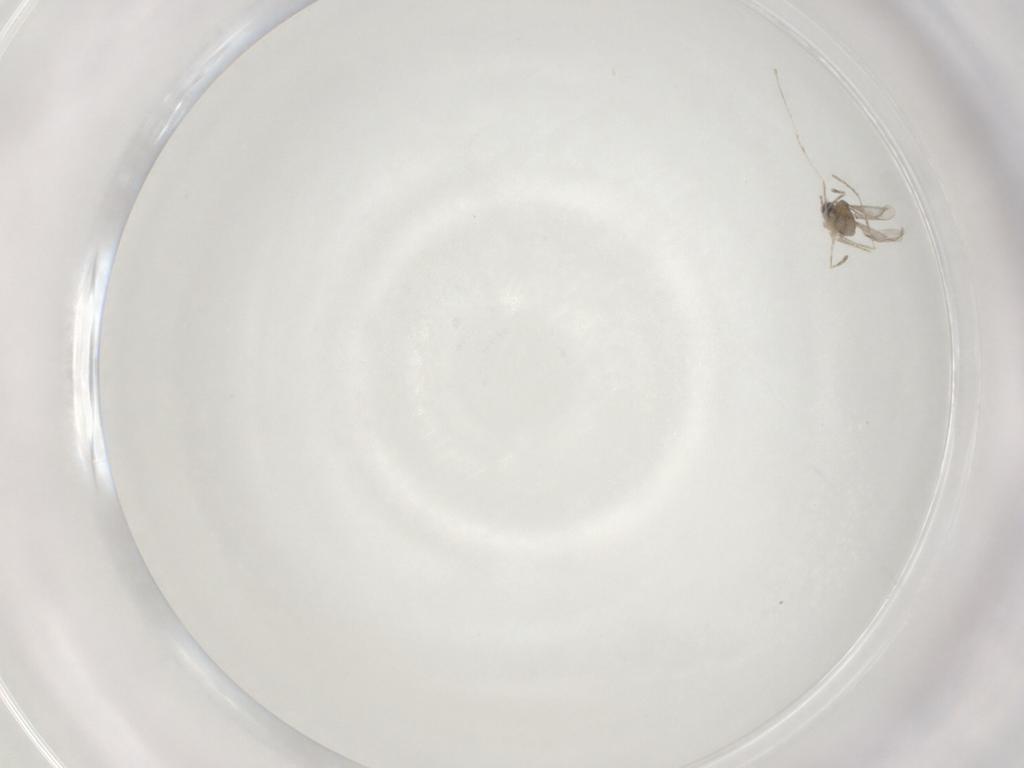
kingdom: Animalia
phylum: Arthropoda
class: Insecta
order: Diptera
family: Cecidomyiidae
